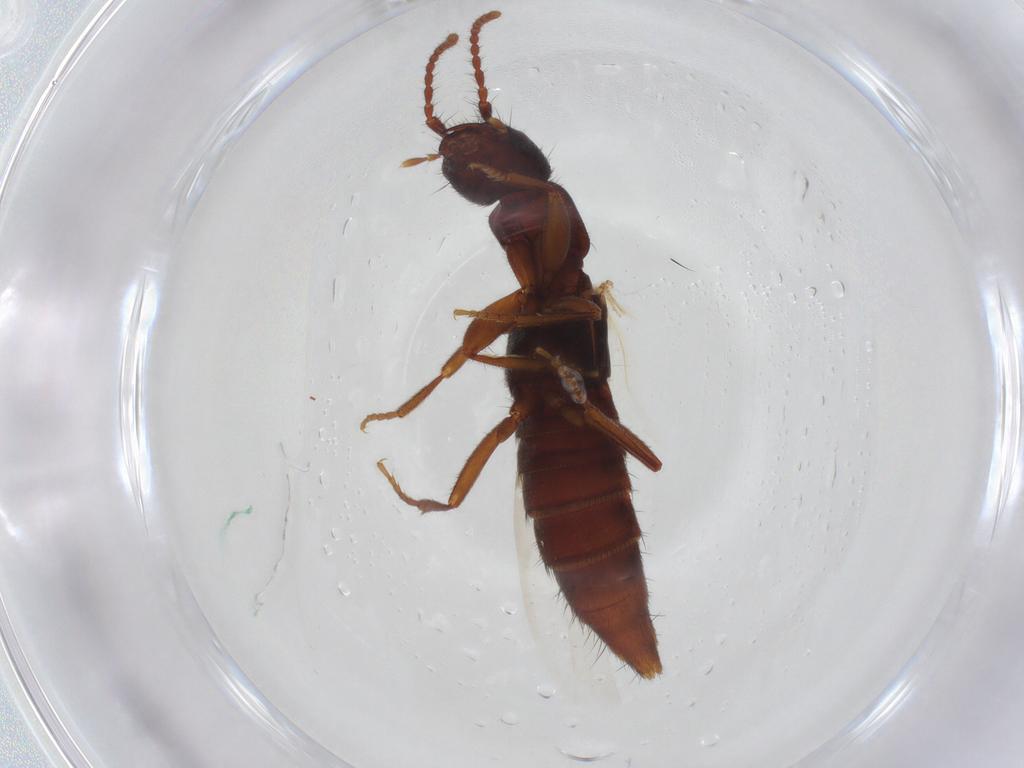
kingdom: Animalia
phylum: Arthropoda
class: Insecta
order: Coleoptera
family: Staphylinidae
